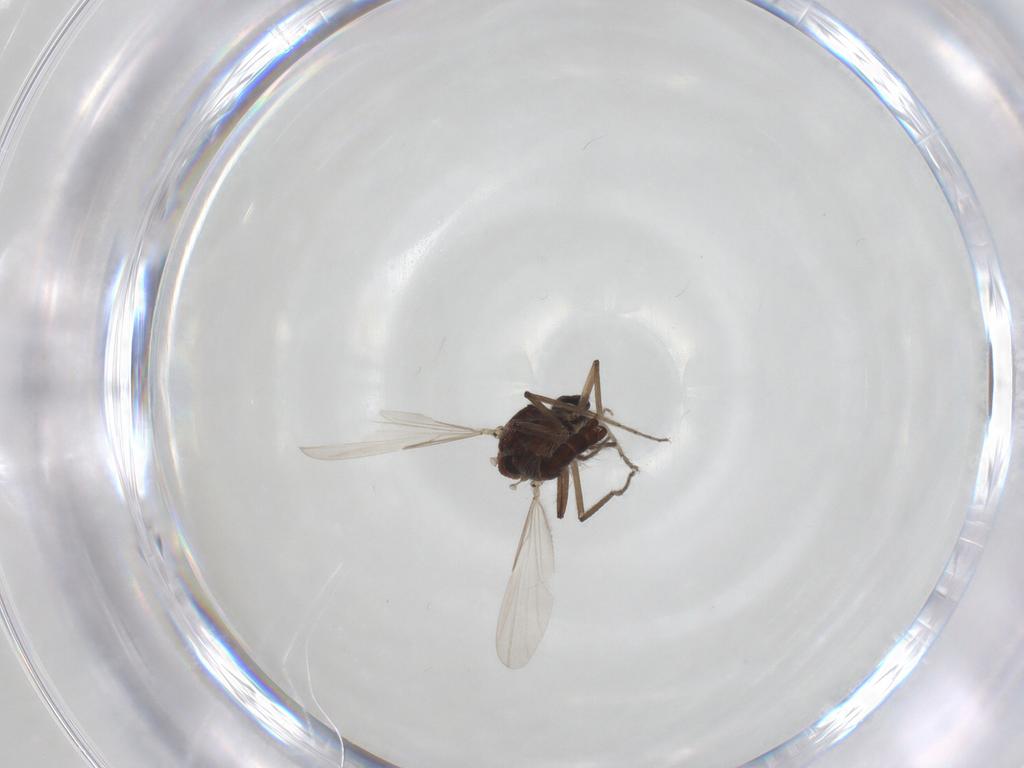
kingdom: Animalia
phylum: Arthropoda
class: Insecta
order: Diptera
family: Ceratopogonidae
